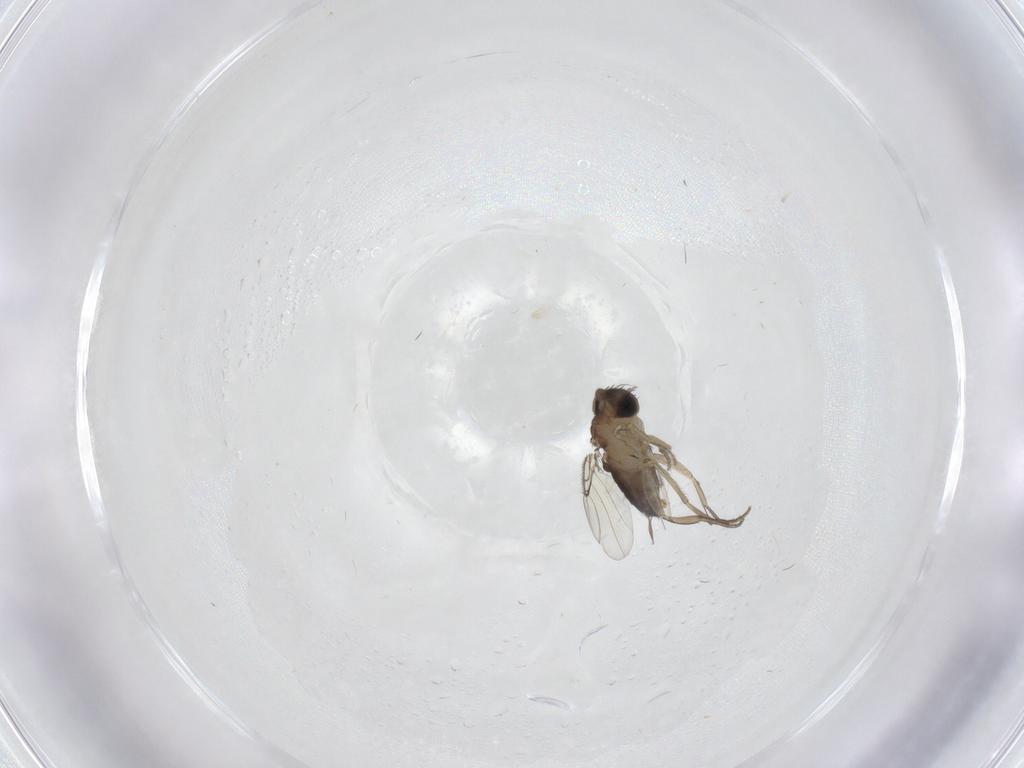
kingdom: Animalia
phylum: Arthropoda
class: Insecta
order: Diptera
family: Phoridae
